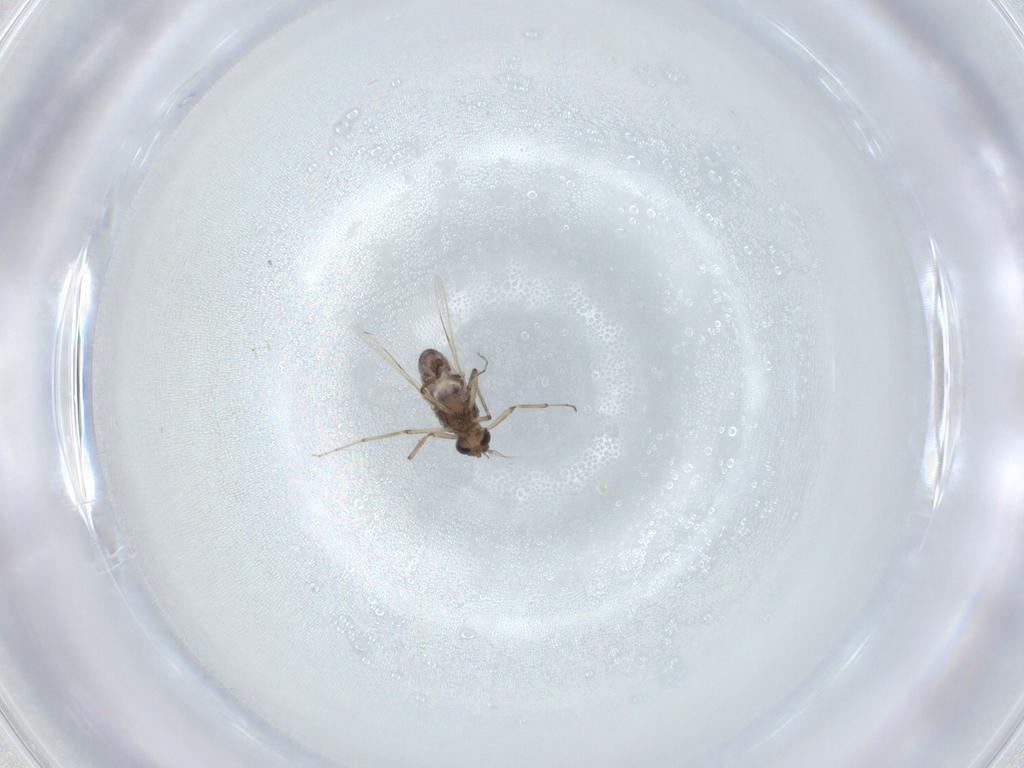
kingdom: Animalia
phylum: Arthropoda
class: Insecta
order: Diptera
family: Ceratopogonidae
